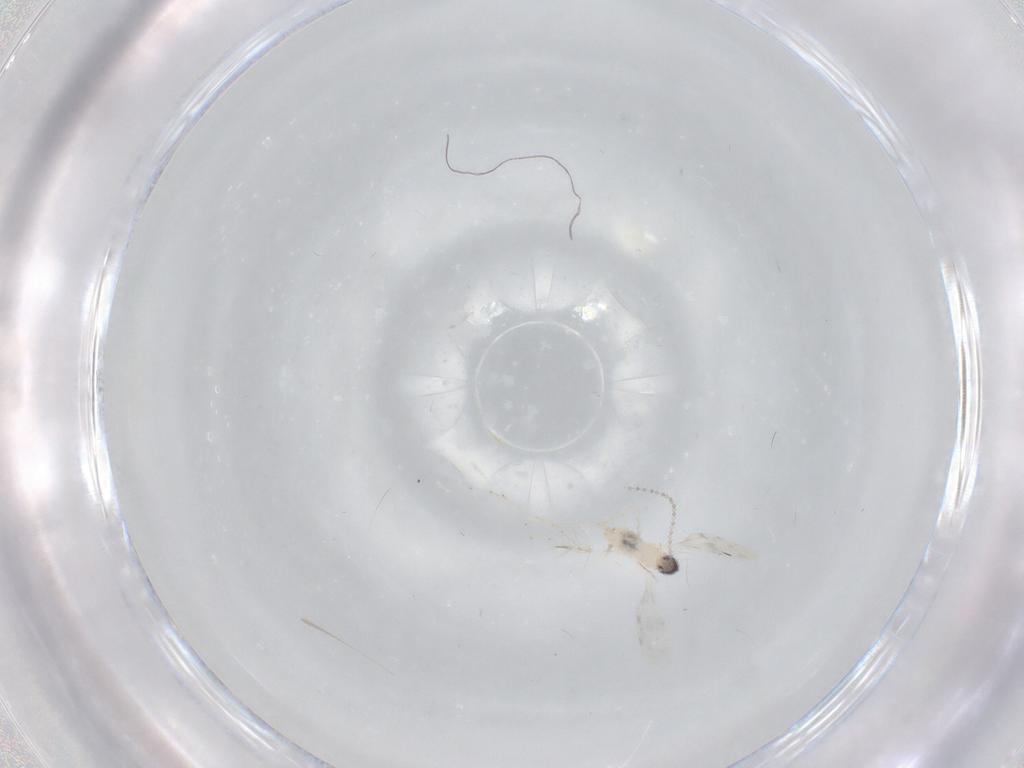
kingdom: Animalia
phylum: Arthropoda
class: Insecta
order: Diptera
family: Cecidomyiidae
